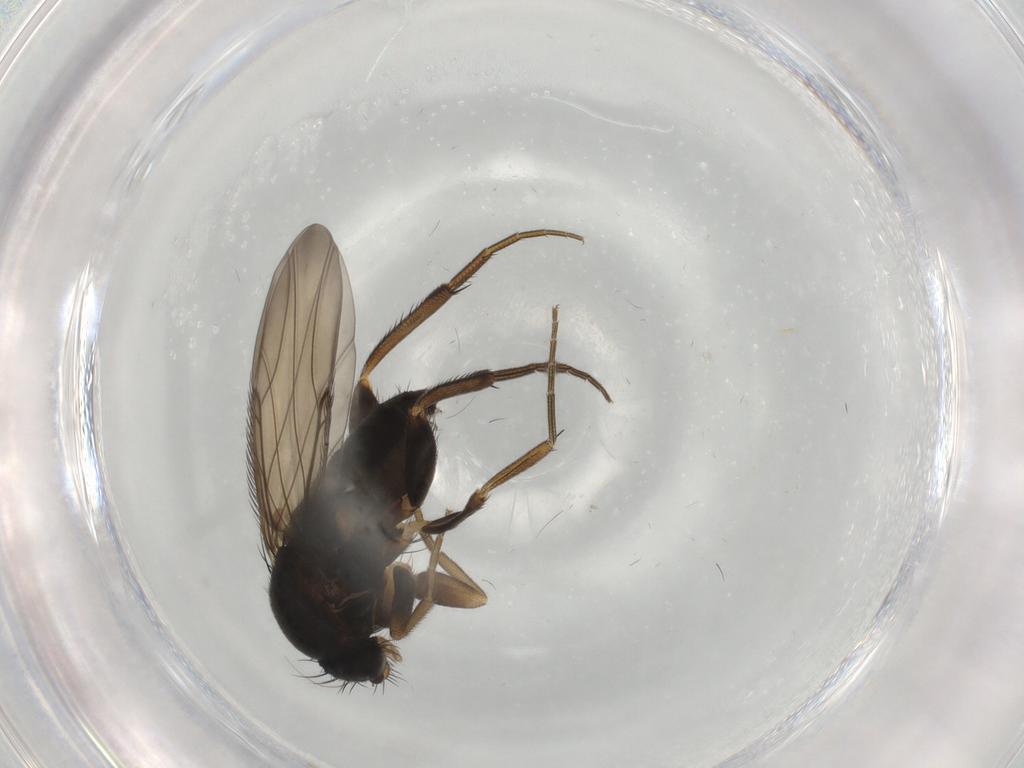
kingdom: Animalia
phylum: Arthropoda
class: Insecta
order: Diptera
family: Phoridae
